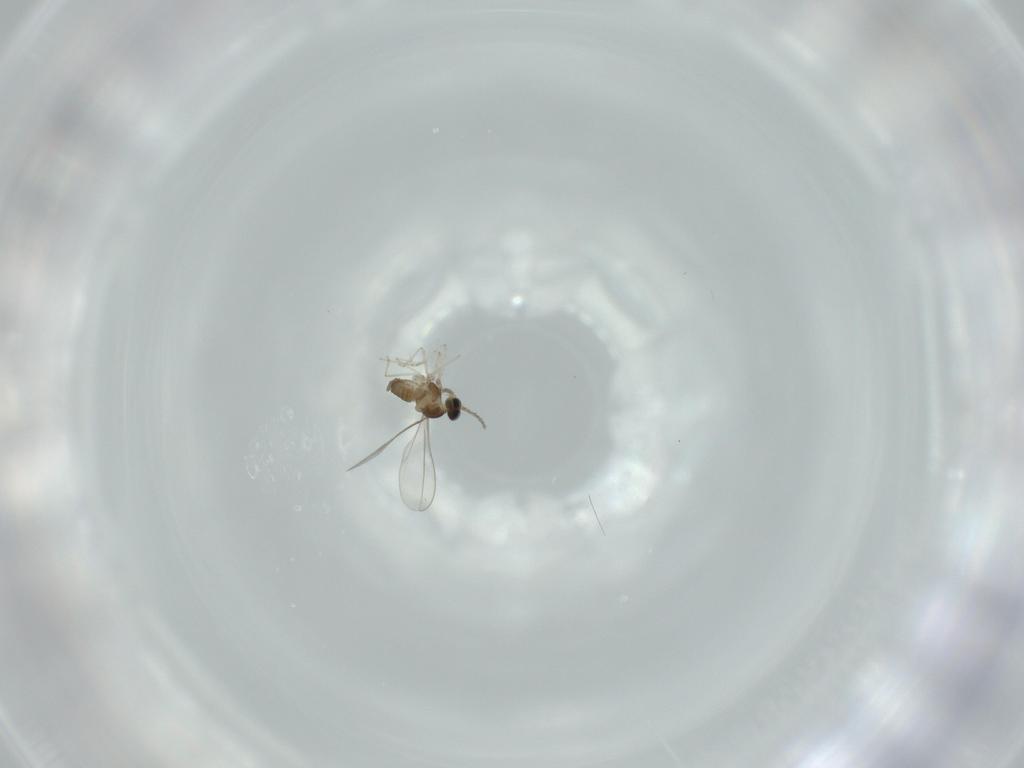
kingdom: Animalia
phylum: Arthropoda
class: Insecta
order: Diptera
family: Cecidomyiidae
